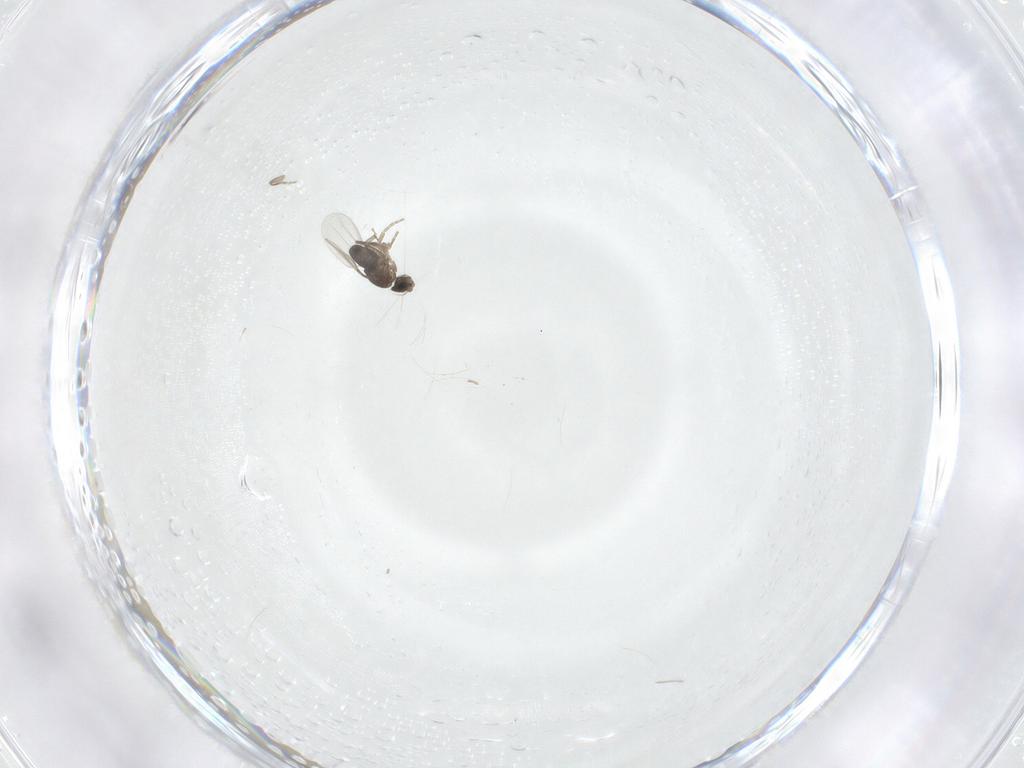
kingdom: Animalia
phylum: Arthropoda
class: Insecta
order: Diptera
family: Phoridae
